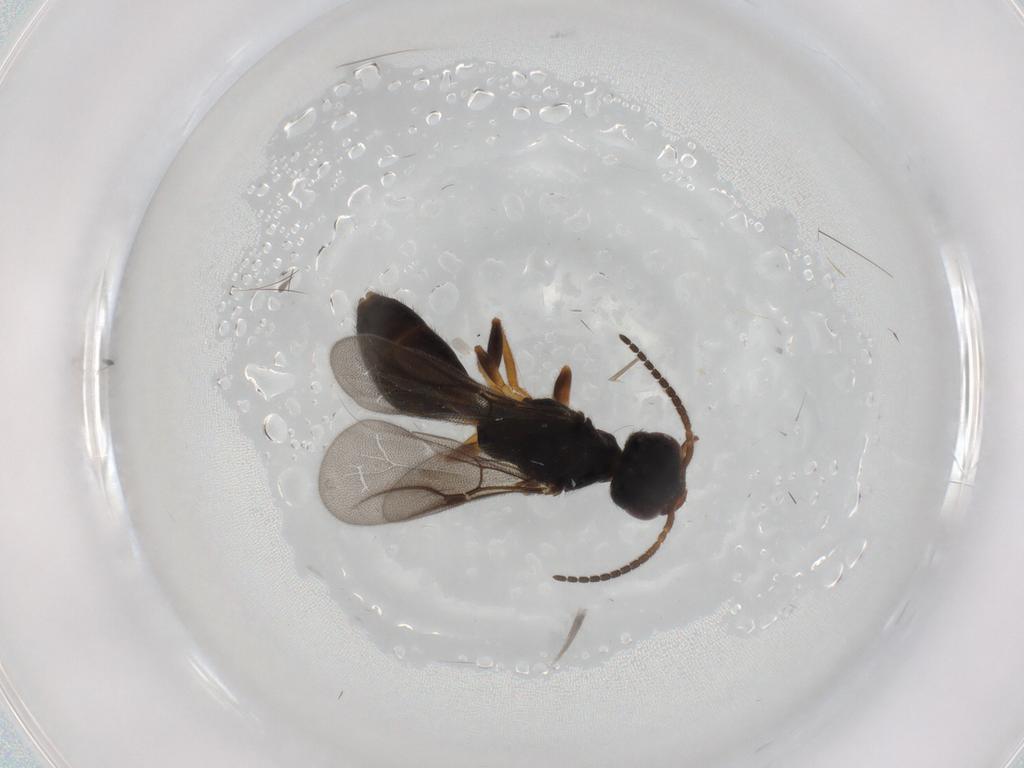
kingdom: Animalia
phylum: Arthropoda
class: Insecta
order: Hymenoptera
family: Bethylidae
